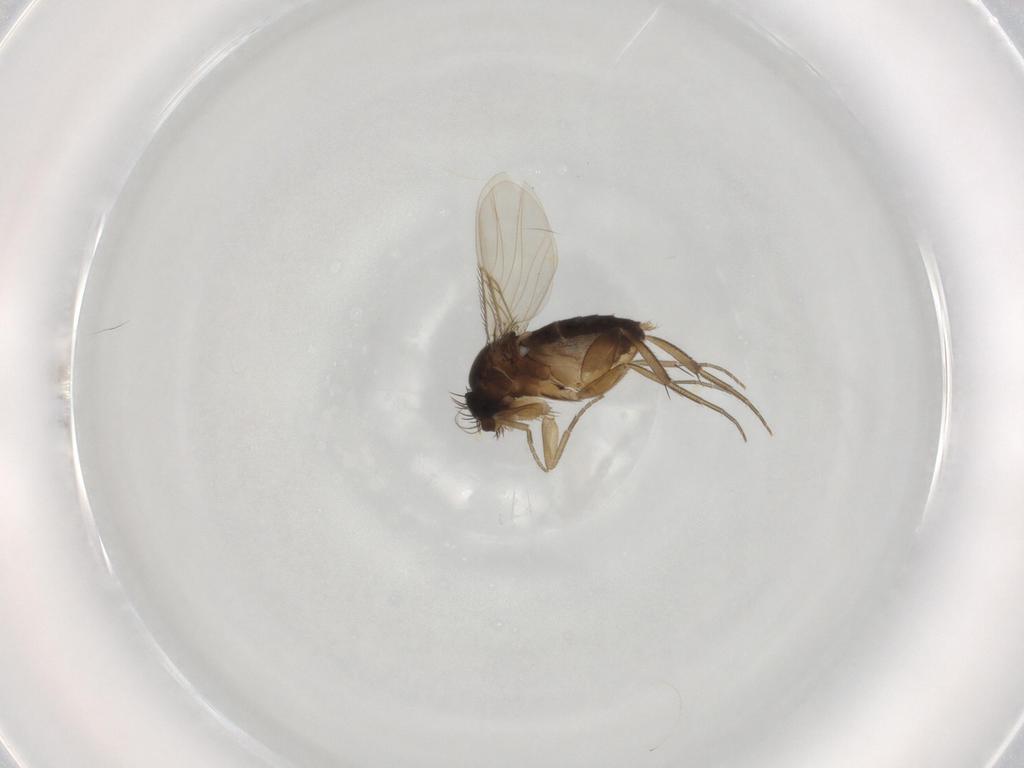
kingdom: Animalia
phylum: Arthropoda
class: Insecta
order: Diptera
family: Phoridae
